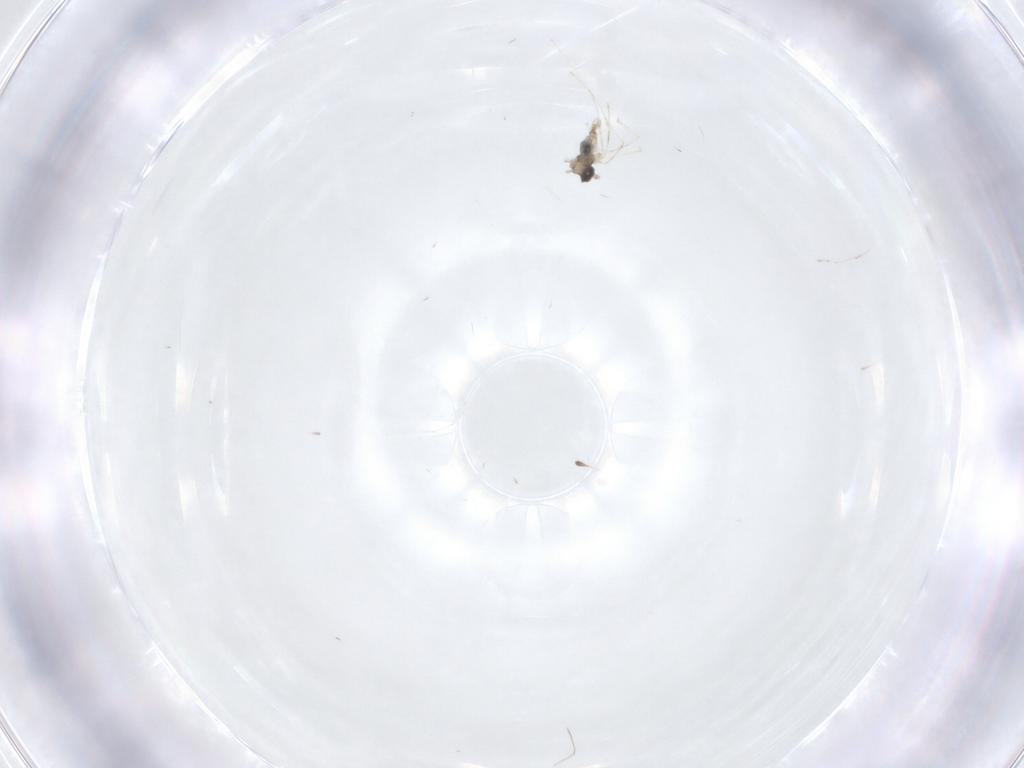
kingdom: Animalia
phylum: Arthropoda
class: Insecta
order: Diptera
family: Cecidomyiidae
